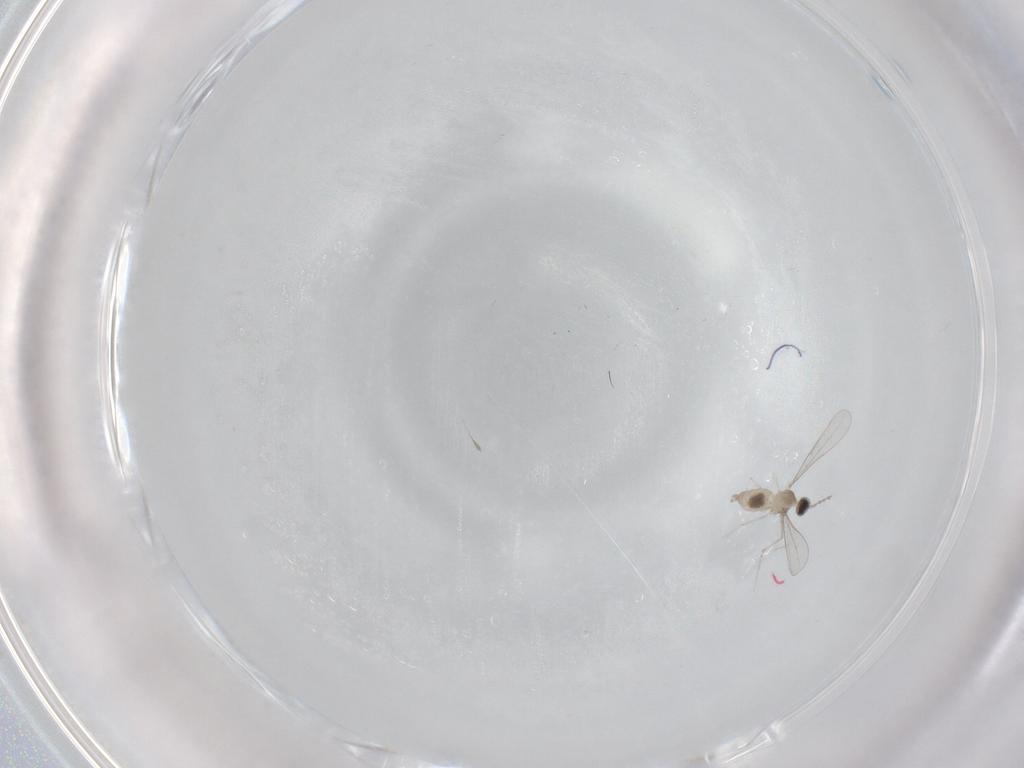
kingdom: Animalia
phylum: Arthropoda
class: Insecta
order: Diptera
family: Cecidomyiidae
